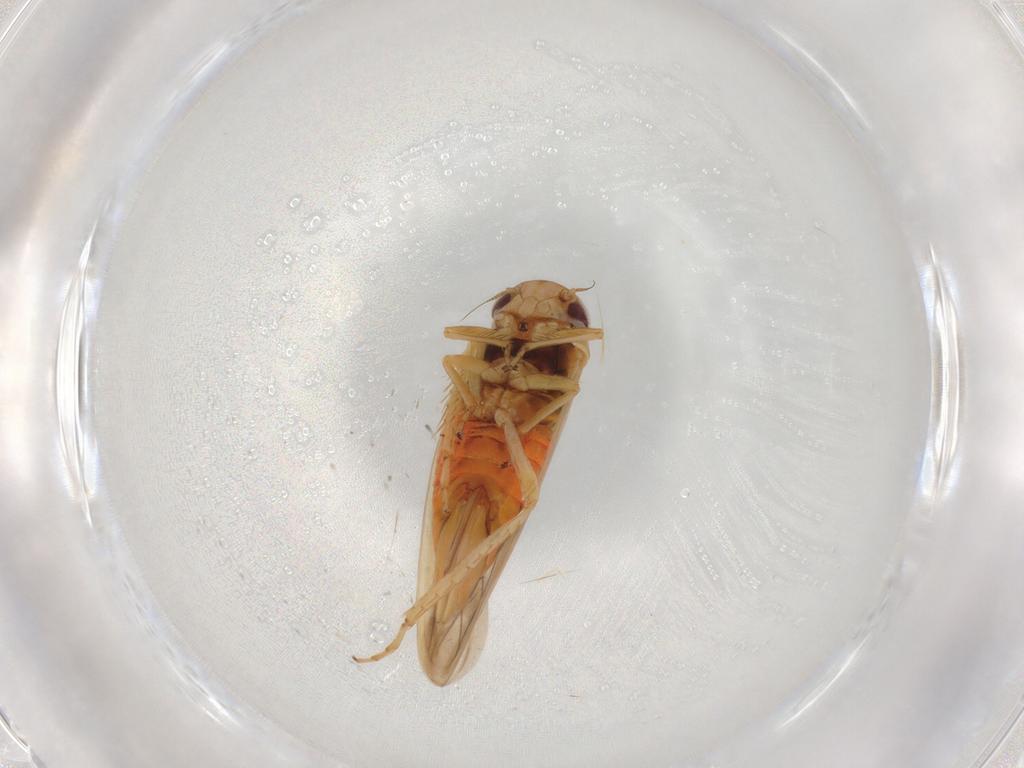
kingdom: Animalia
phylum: Arthropoda
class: Insecta
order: Hemiptera
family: Cicadellidae
